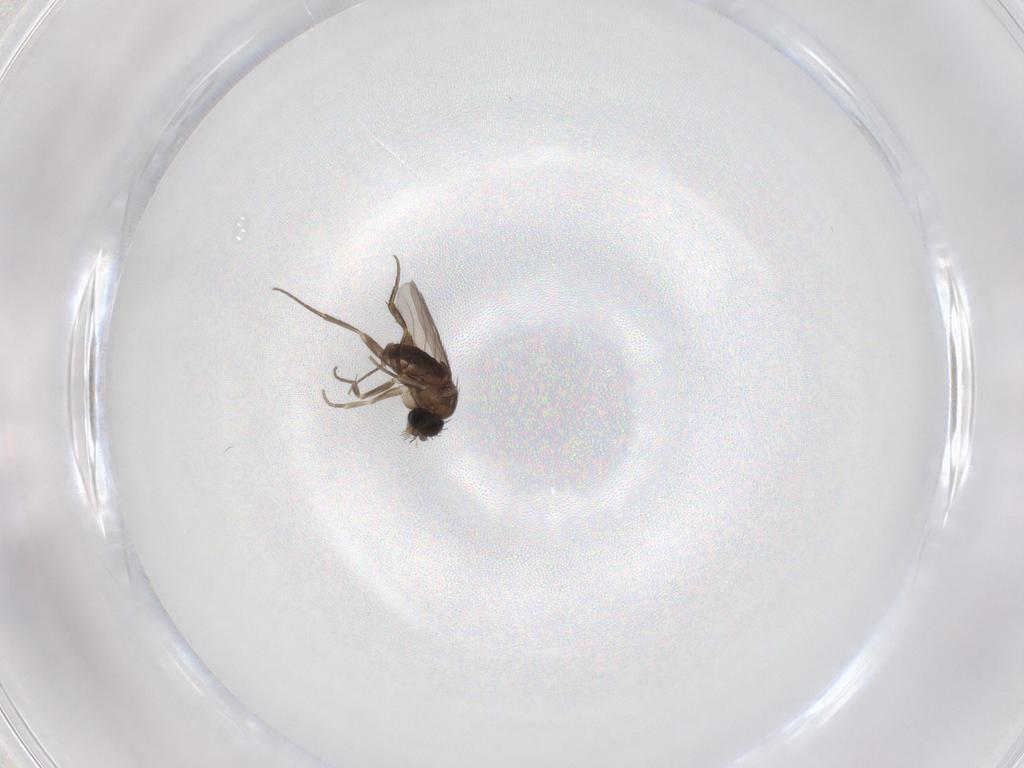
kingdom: Animalia
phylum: Arthropoda
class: Insecta
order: Diptera
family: Phoridae
